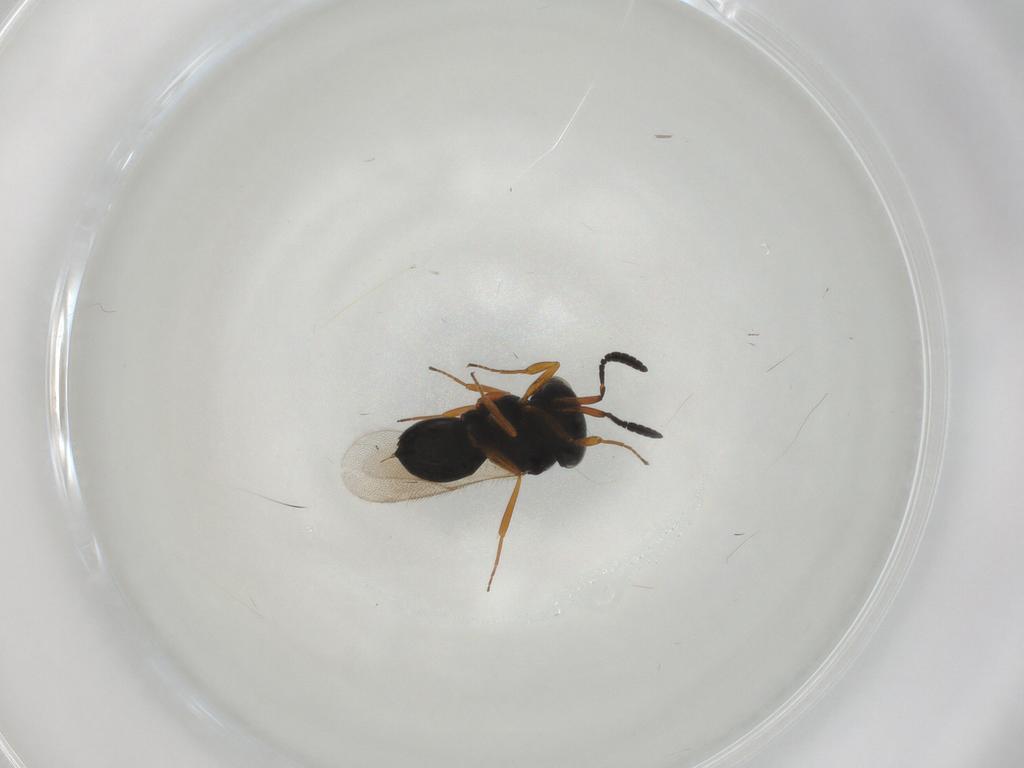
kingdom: Animalia
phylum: Arthropoda
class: Insecta
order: Hymenoptera
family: Scelionidae
